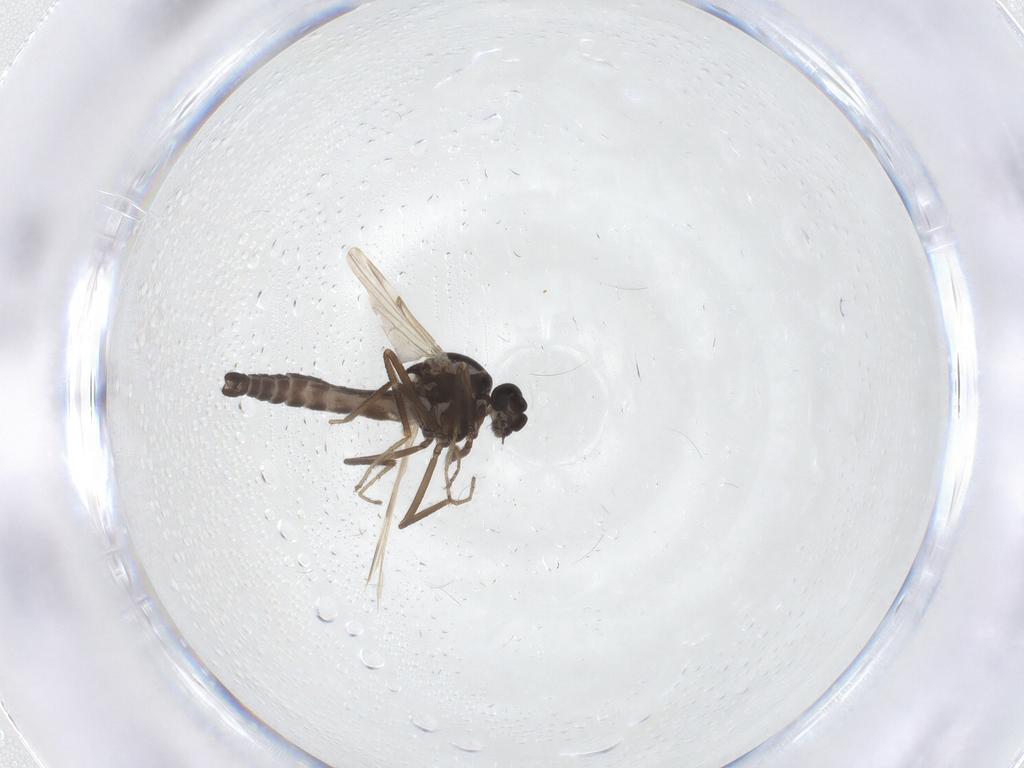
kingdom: Animalia
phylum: Arthropoda
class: Insecta
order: Diptera
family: Ceratopogonidae
